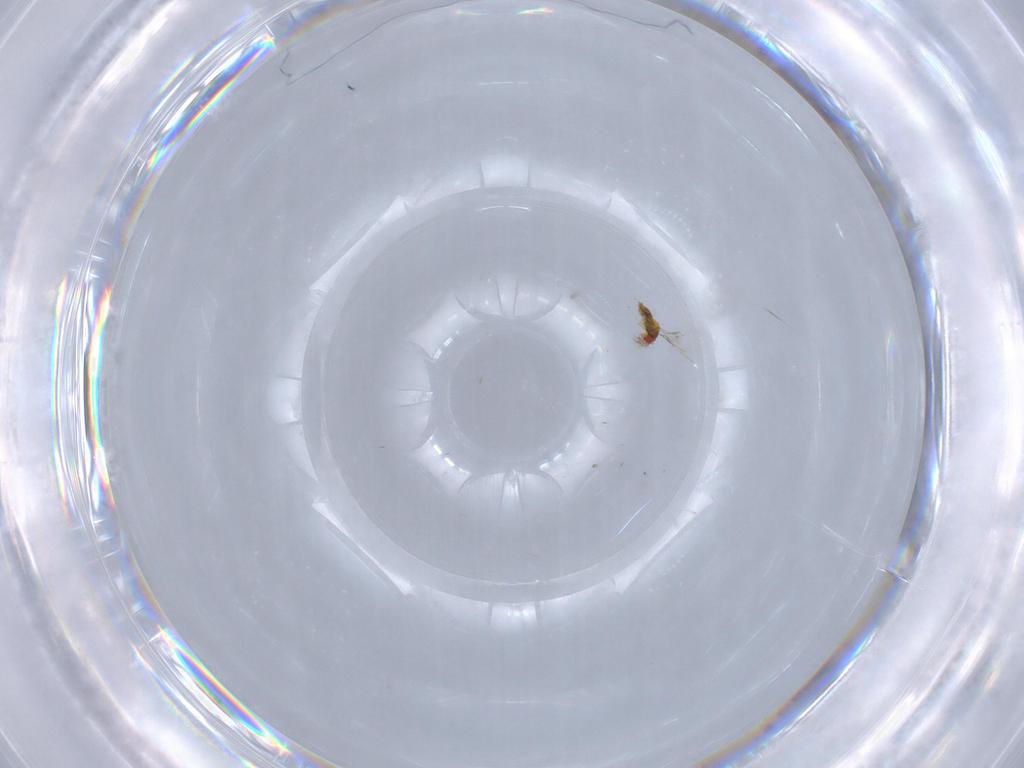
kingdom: Animalia
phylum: Arthropoda
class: Insecta
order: Hymenoptera
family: Trichogrammatidae
